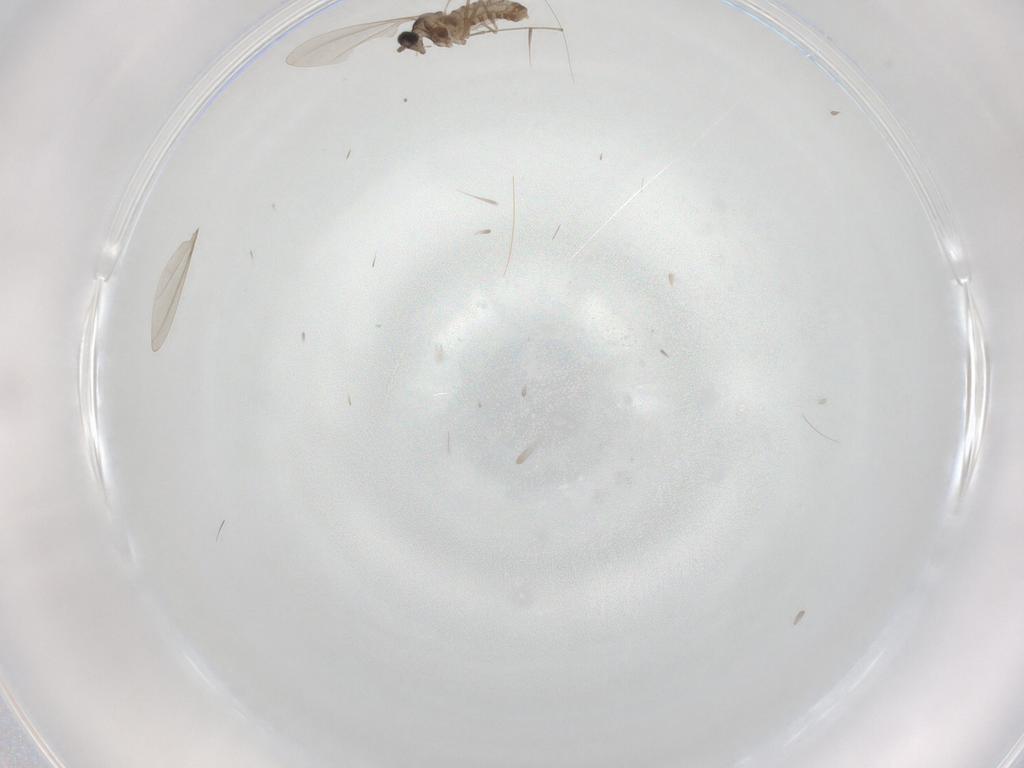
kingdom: Animalia
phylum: Arthropoda
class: Insecta
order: Diptera
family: Cecidomyiidae
